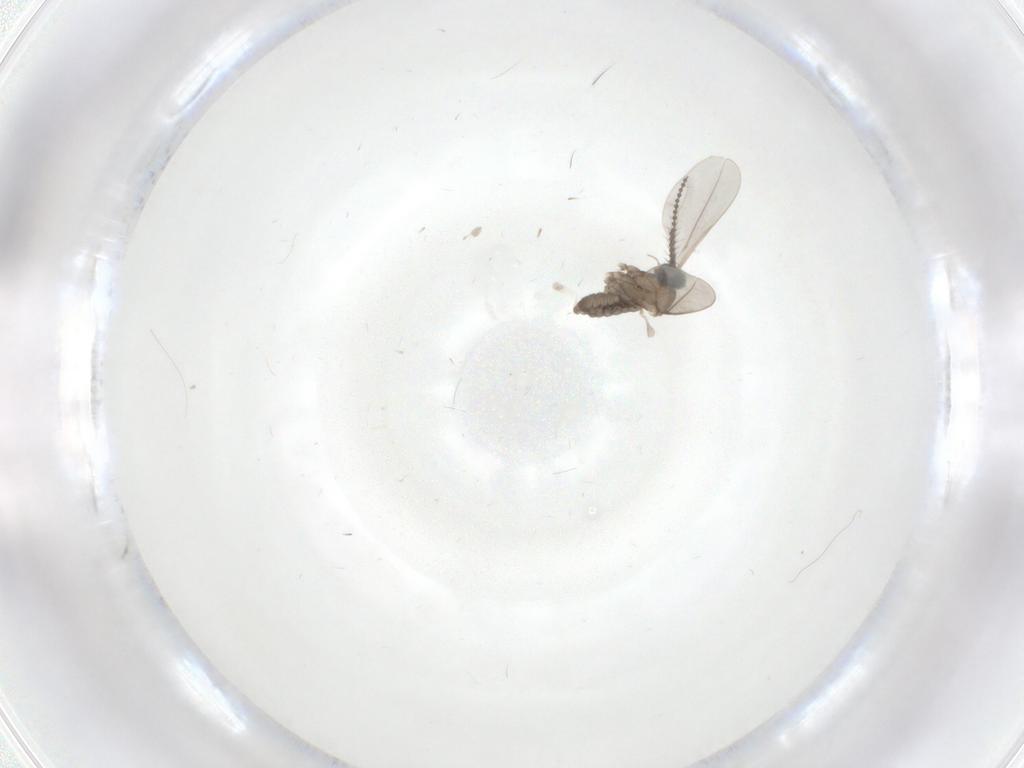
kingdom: Animalia
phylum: Arthropoda
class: Insecta
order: Diptera
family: Cecidomyiidae
